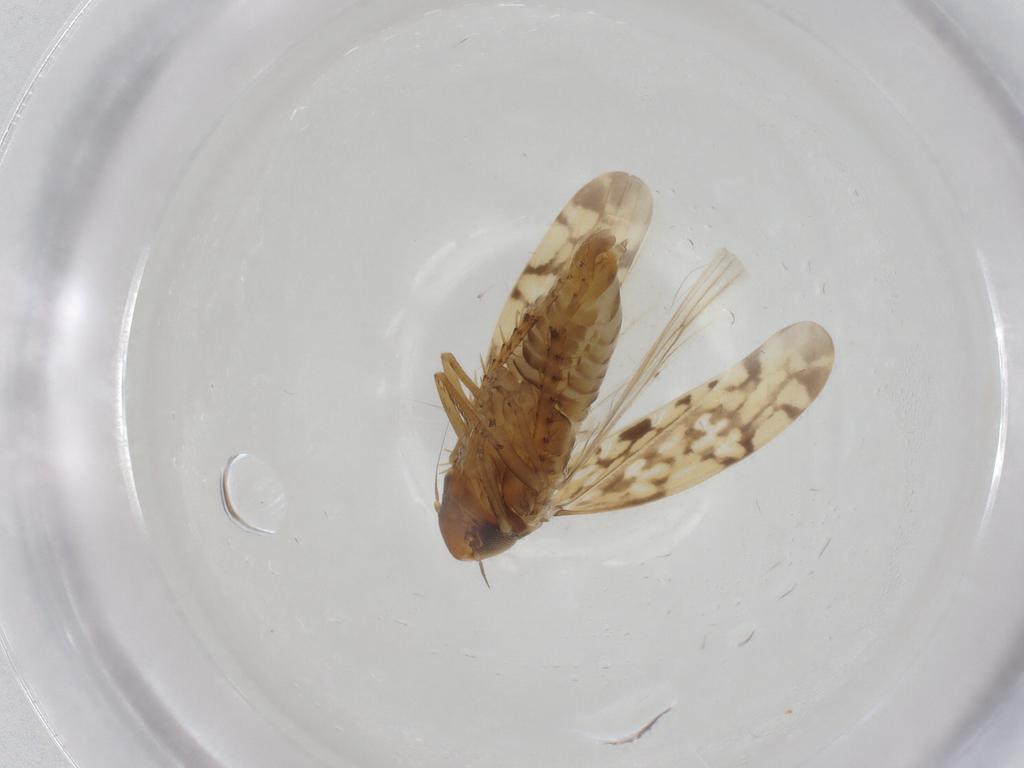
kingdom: Animalia
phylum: Arthropoda
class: Insecta
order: Hemiptera
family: Cicadellidae
